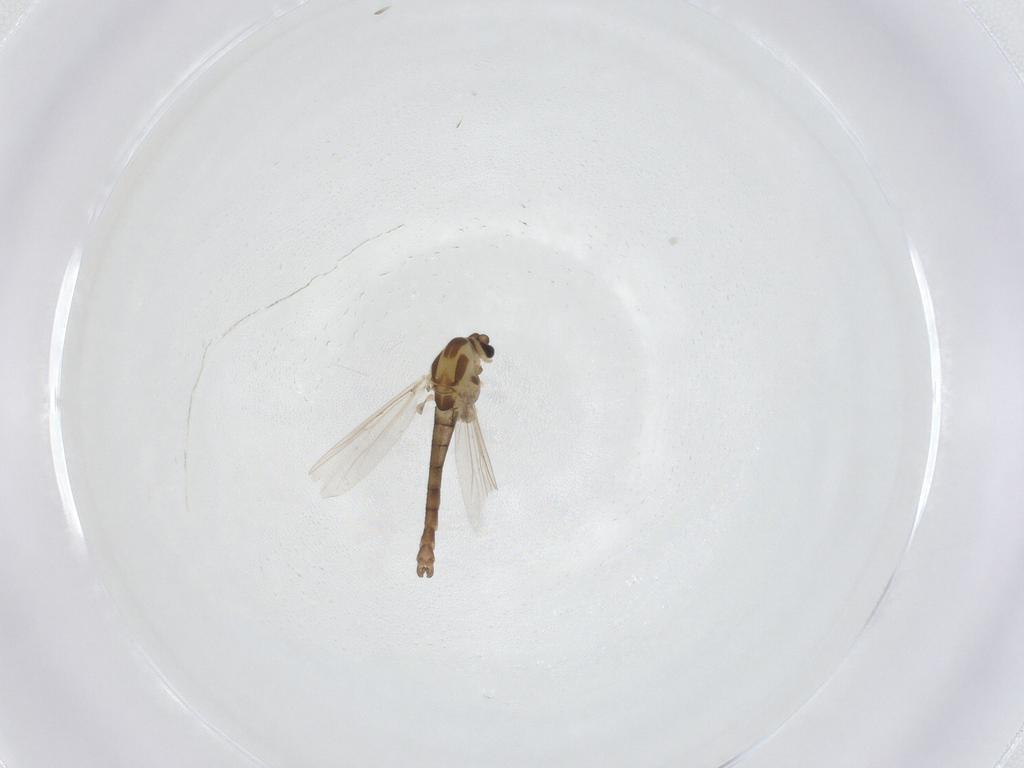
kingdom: Animalia
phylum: Arthropoda
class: Insecta
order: Diptera
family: Chironomidae
